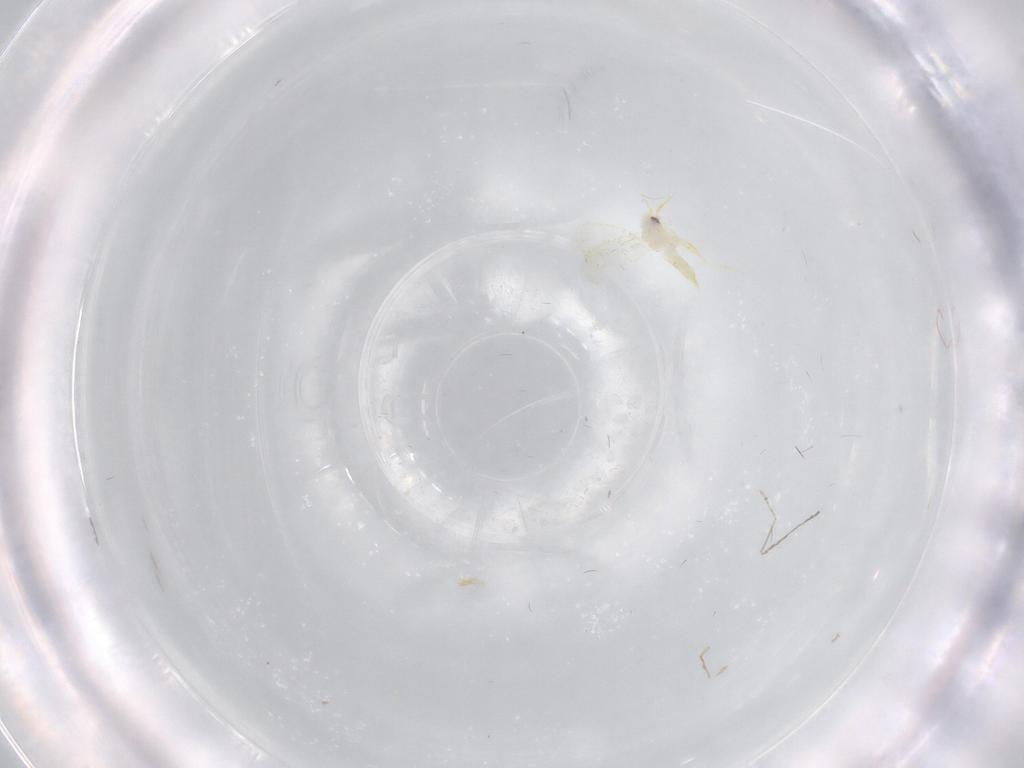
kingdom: Animalia
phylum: Arthropoda
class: Insecta
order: Hemiptera
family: Aleyrodidae
